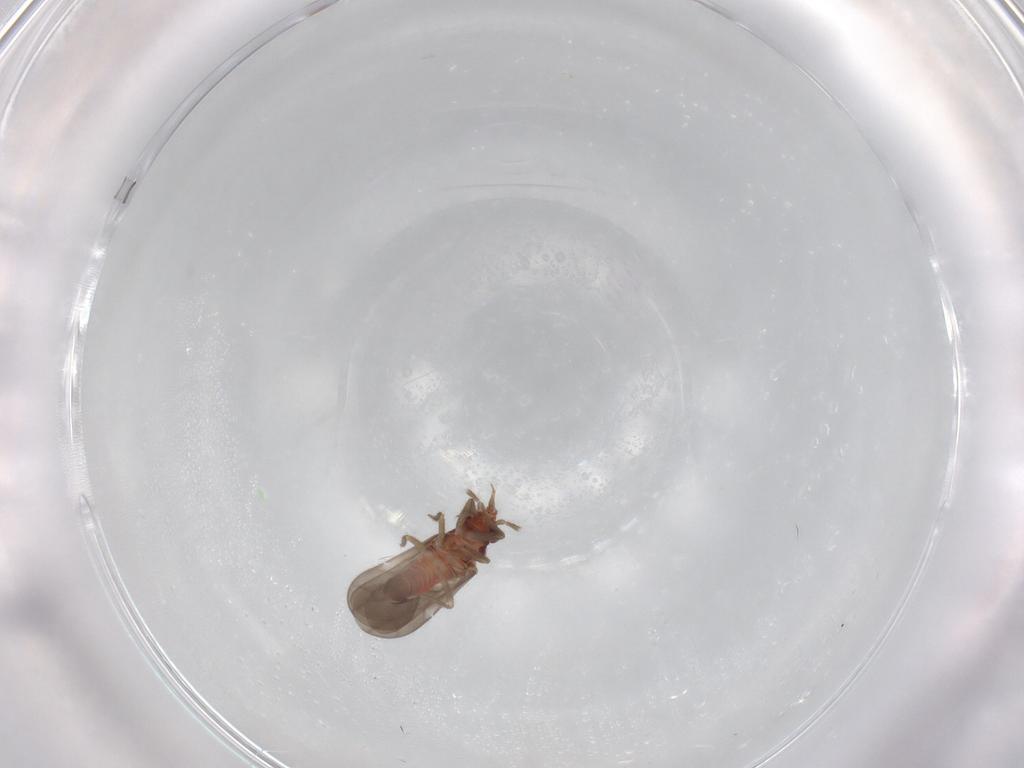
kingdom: Animalia
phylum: Arthropoda
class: Insecta
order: Hemiptera
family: Ceratocombidae
